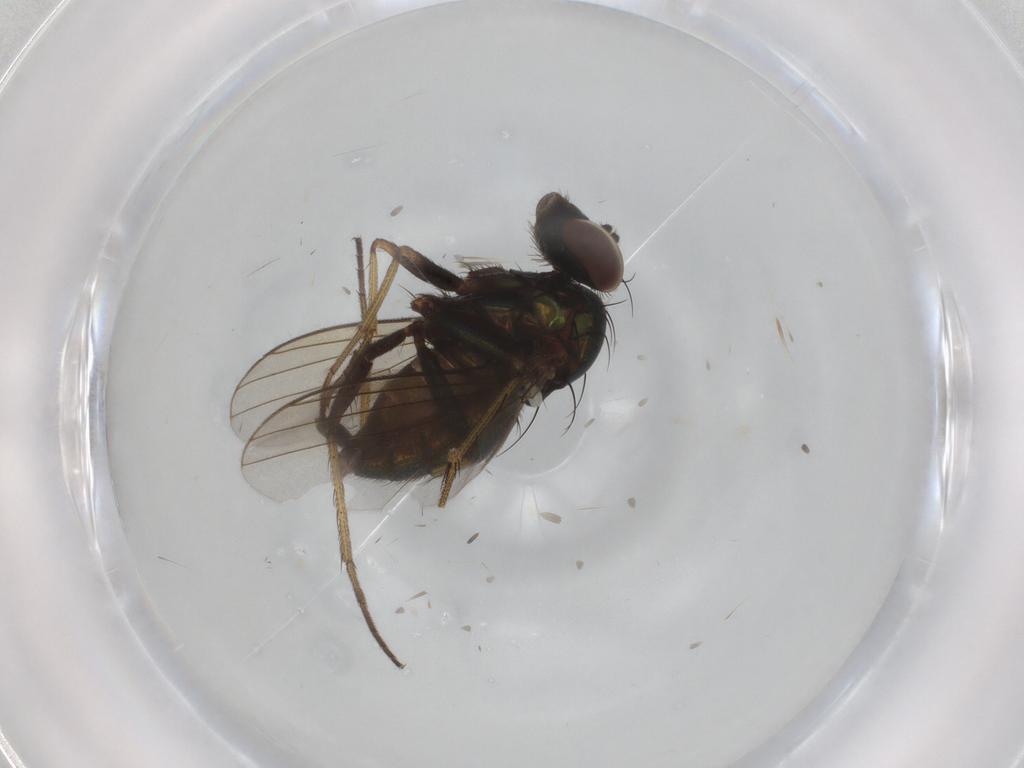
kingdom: Animalia
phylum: Arthropoda
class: Insecta
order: Diptera
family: Dolichopodidae
